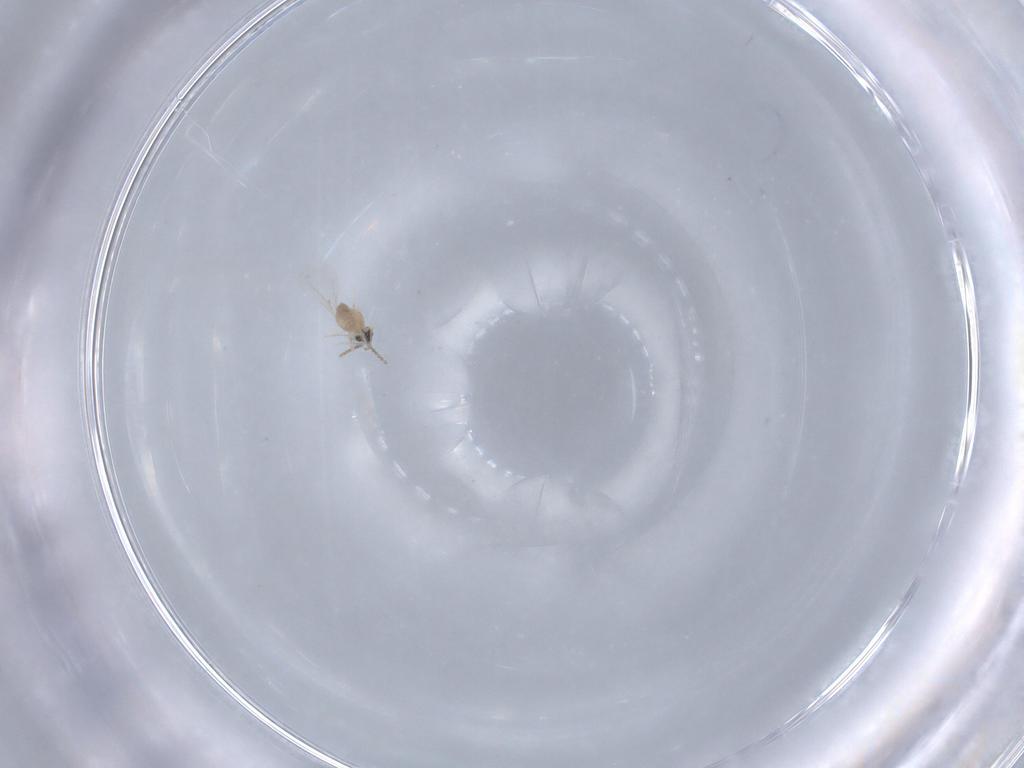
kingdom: Animalia
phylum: Arthropoda
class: Insecta
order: Diptera
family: Cecidomyiidae
